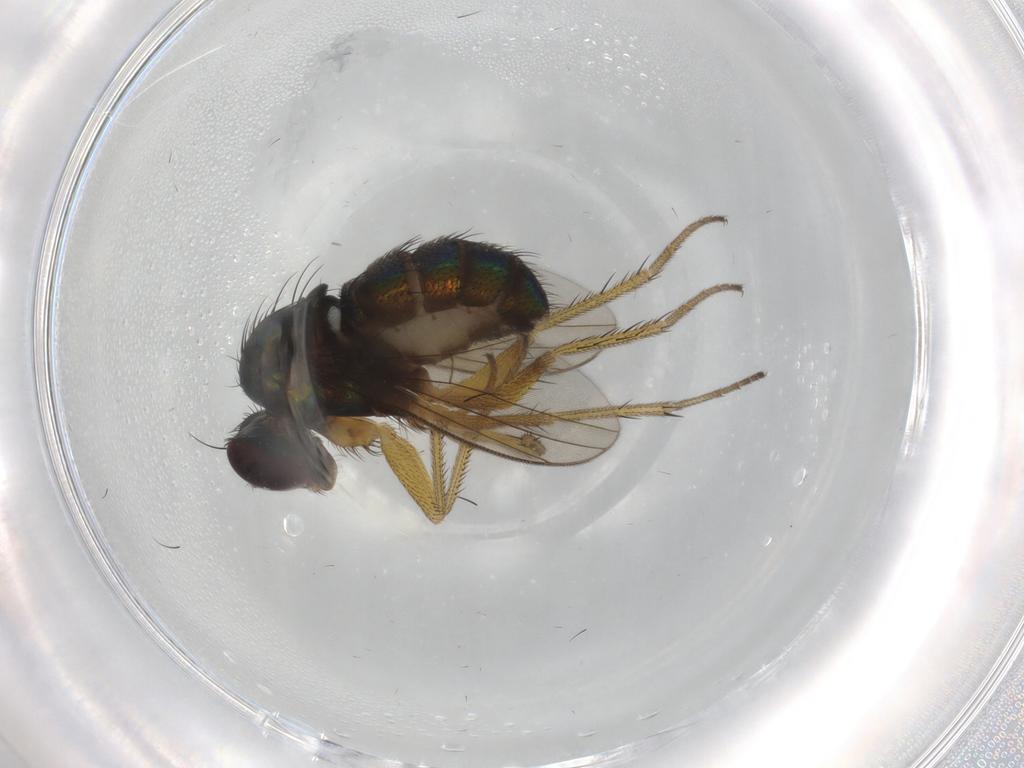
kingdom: Animalia
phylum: Arthropoda
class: Insecta
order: Diptera
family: Dolichopodidae
